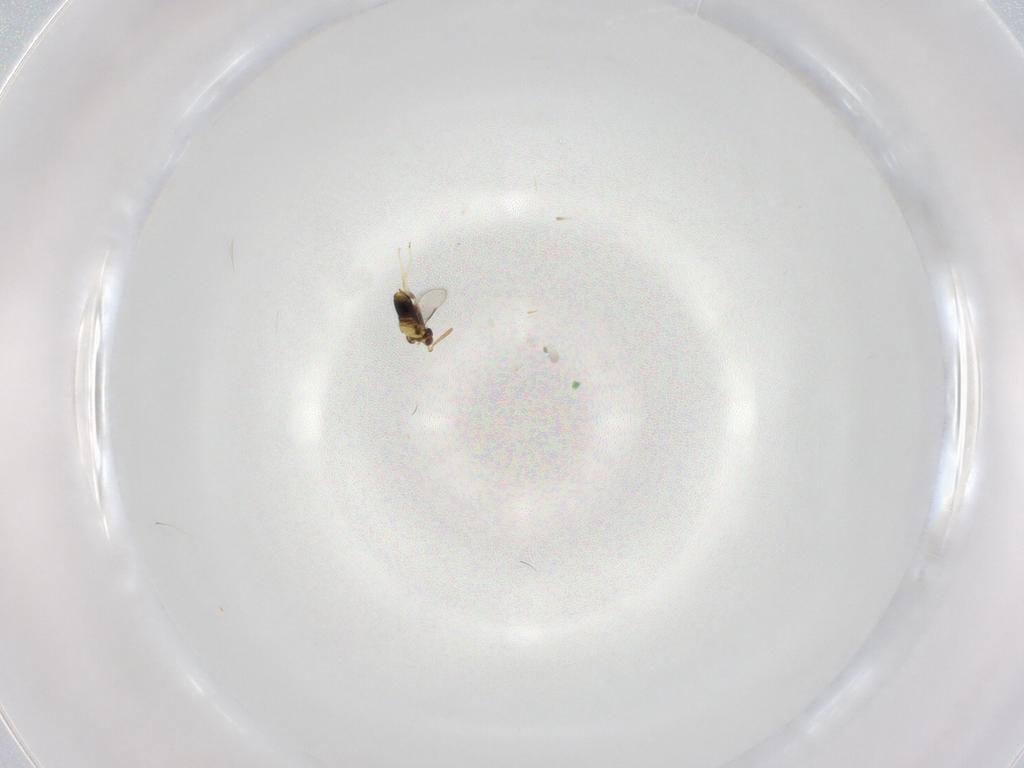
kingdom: Animalia
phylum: Arthropoda
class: Insecta
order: Hymenoptera
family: Aphelinidae
